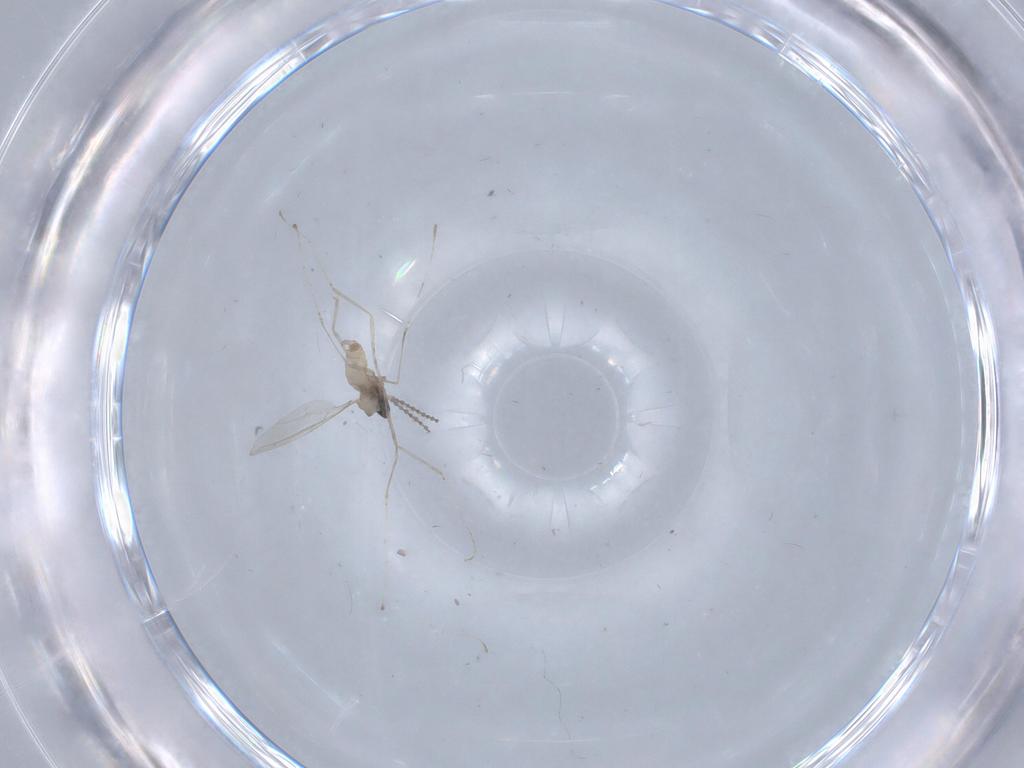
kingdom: Animalia
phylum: Arthropoda
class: Insecta
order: Diptera
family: Cecidomyiidae
